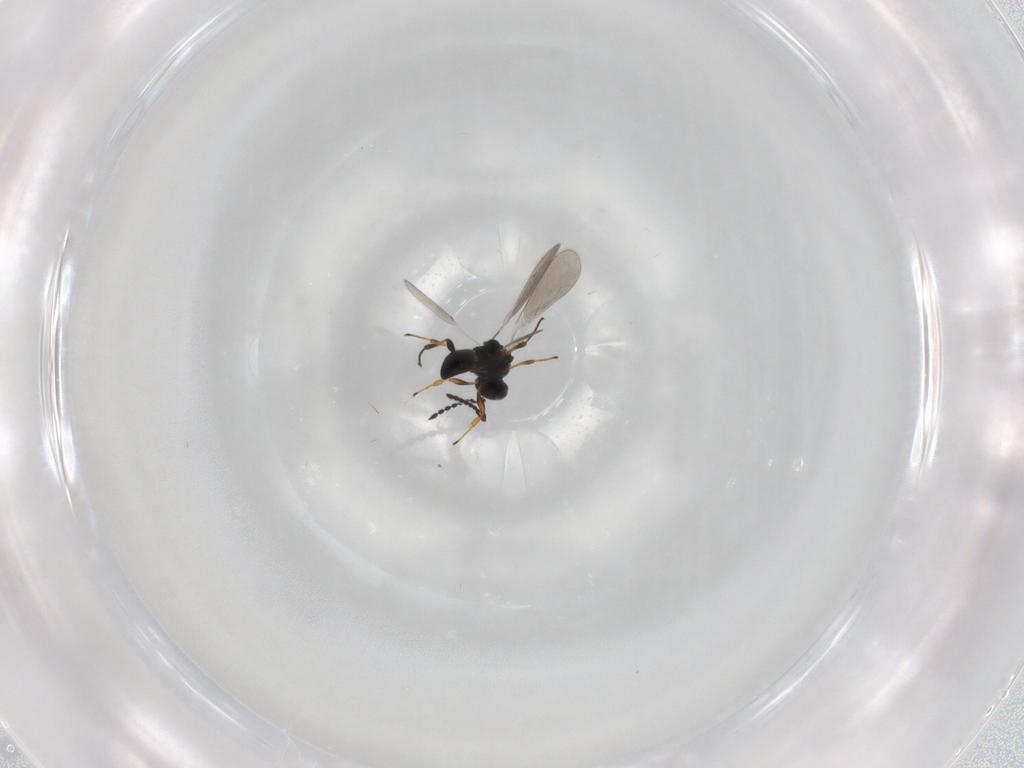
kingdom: Animalia
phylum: Arthropoda
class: Insecta
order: Hymenoptera
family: Platygastridae
